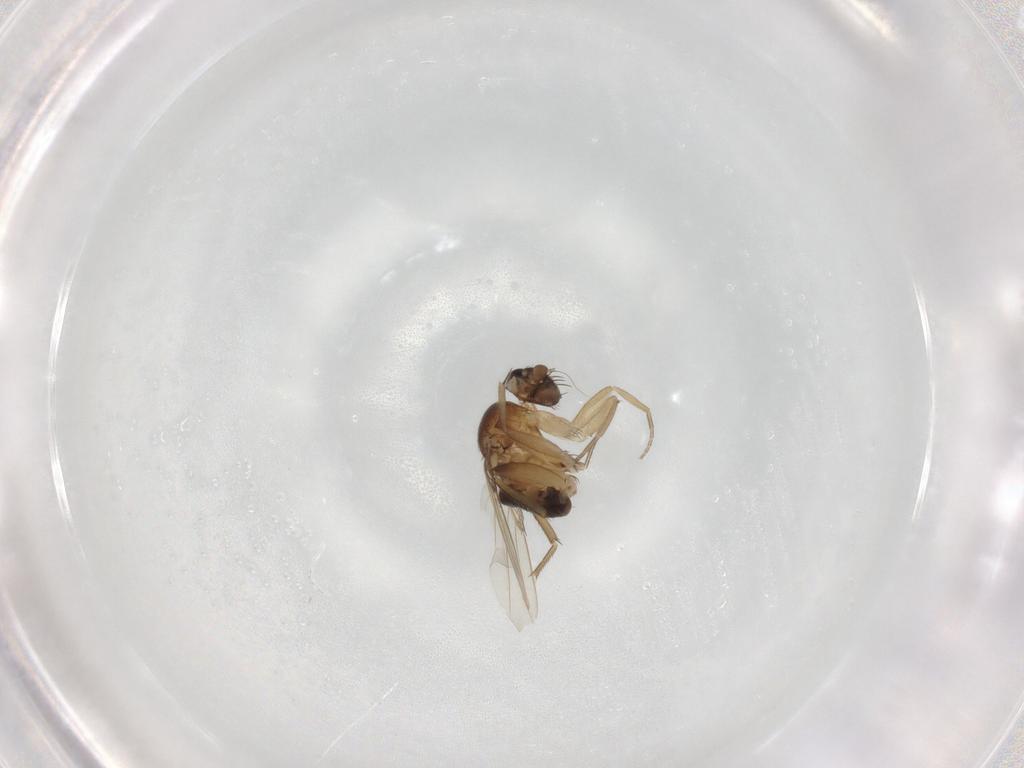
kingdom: Animalia
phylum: Arthropoda
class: Insecta
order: Diptera
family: Phoridae
